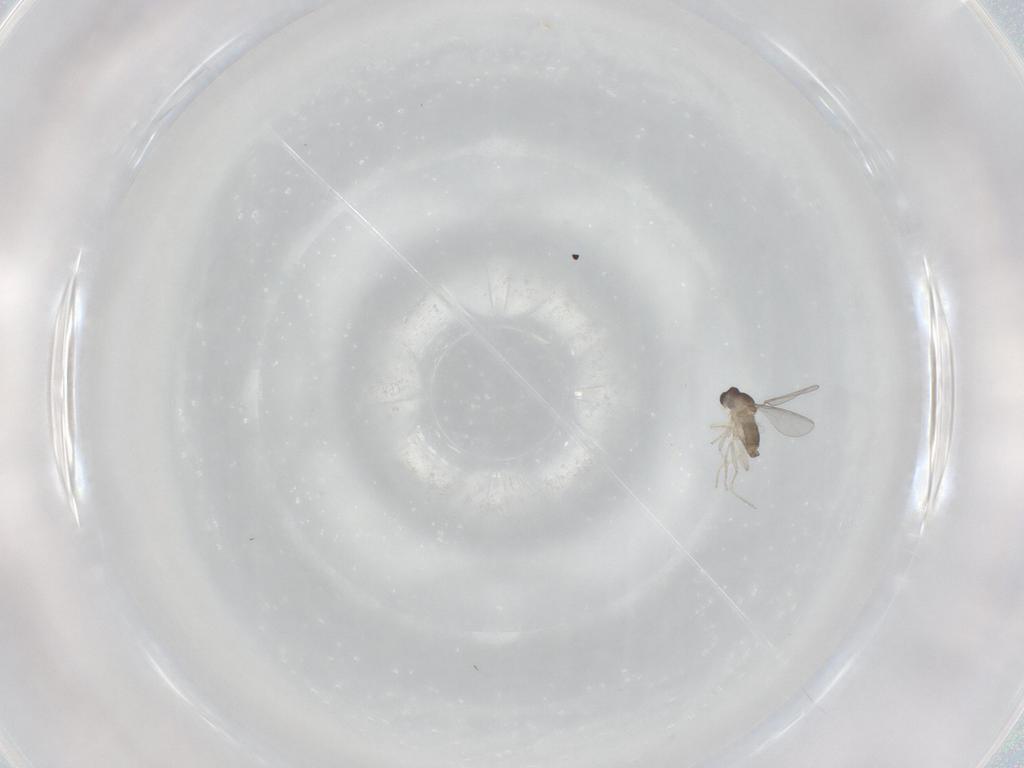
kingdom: Animalia
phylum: Arthropoda
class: Insecta
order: Diptera
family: Cecidomyiidae
